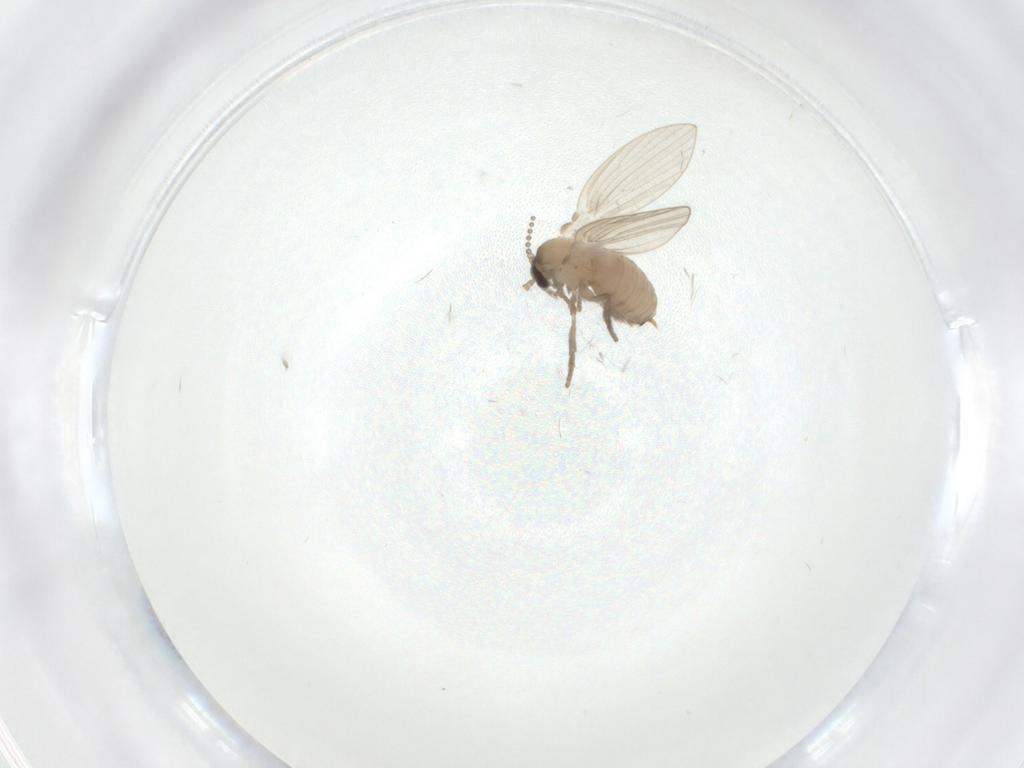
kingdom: Animalia
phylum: Arthropoda
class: Insecta
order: Diptera
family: Psychodidae
